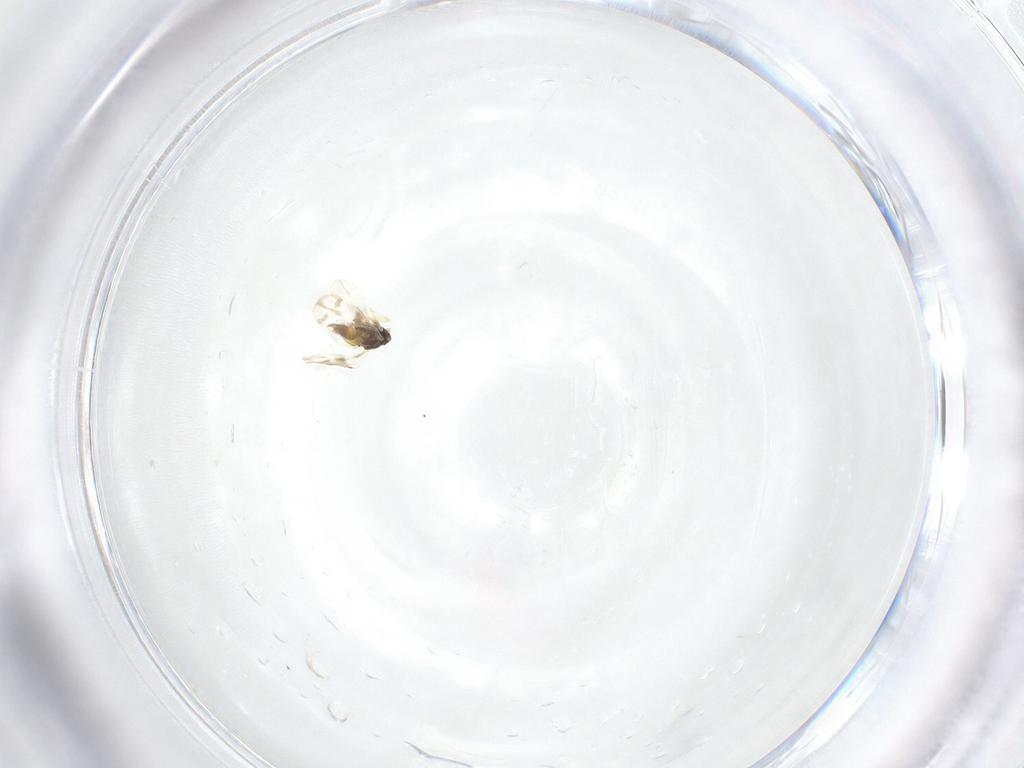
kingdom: Animalia
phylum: Arthropoda
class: Insecta
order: Hemiptera
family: Aleyrodidae
